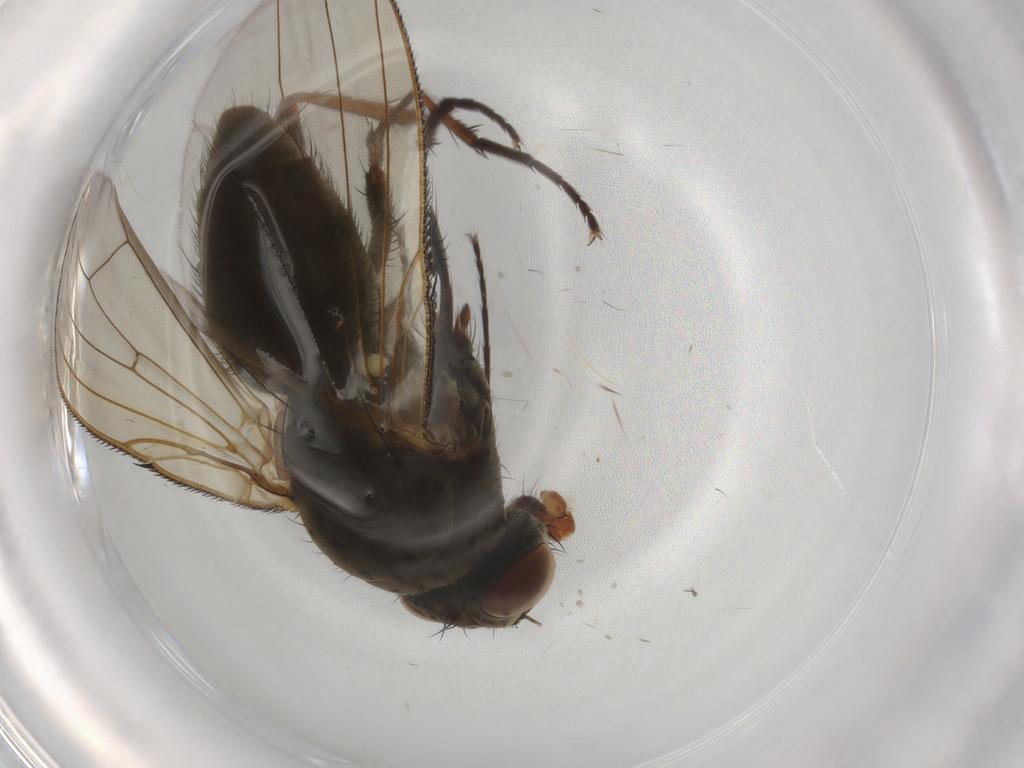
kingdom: Animalia
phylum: Arthropoda
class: Insecta
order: Diptera
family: Anthomyiidae
